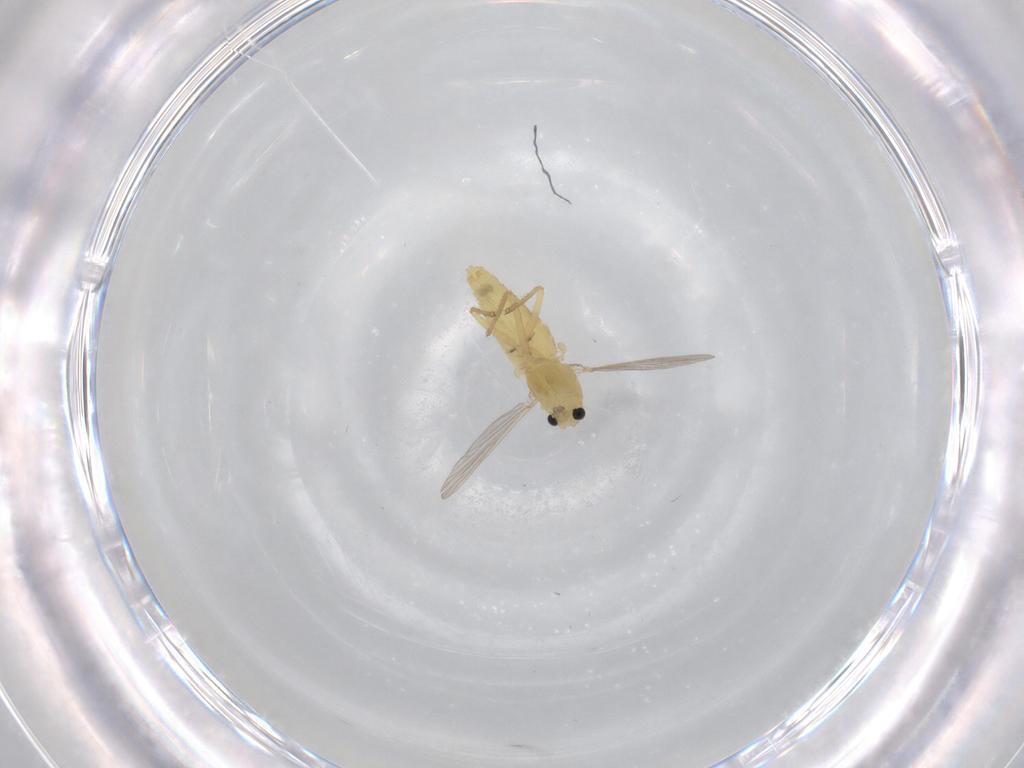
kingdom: Animalia
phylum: Arthropoda
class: Insecta
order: Diptera
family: Chironomidae
